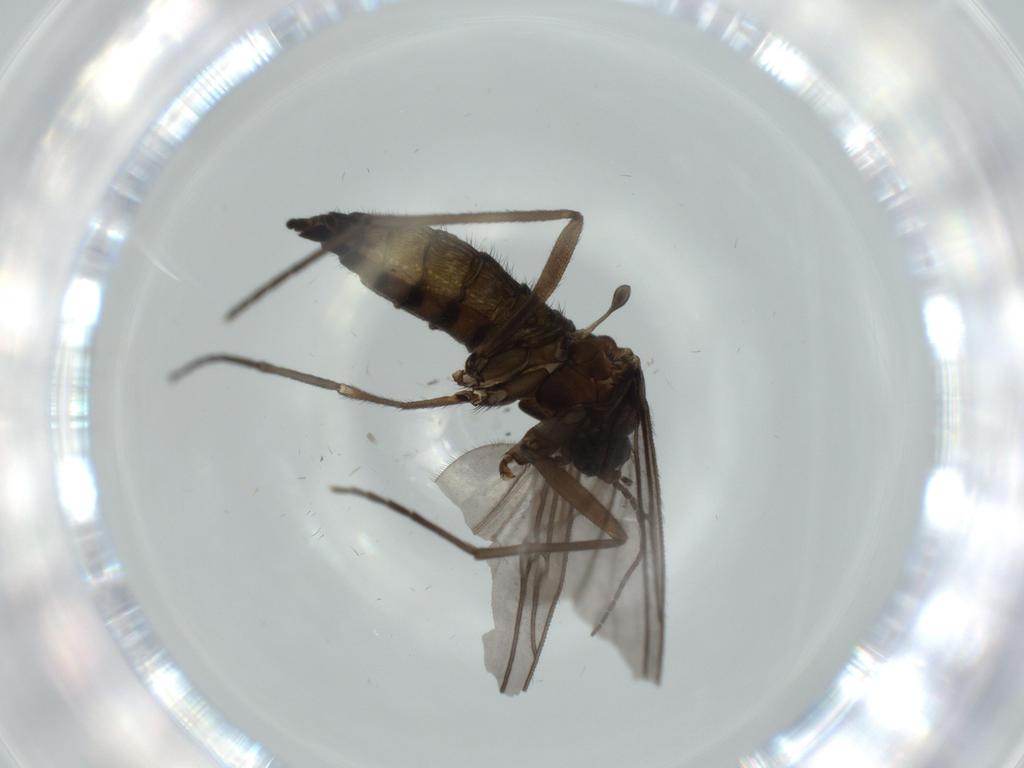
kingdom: Animalia
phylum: Arthropoda
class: Insecta
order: Diptera
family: Sciaridae
